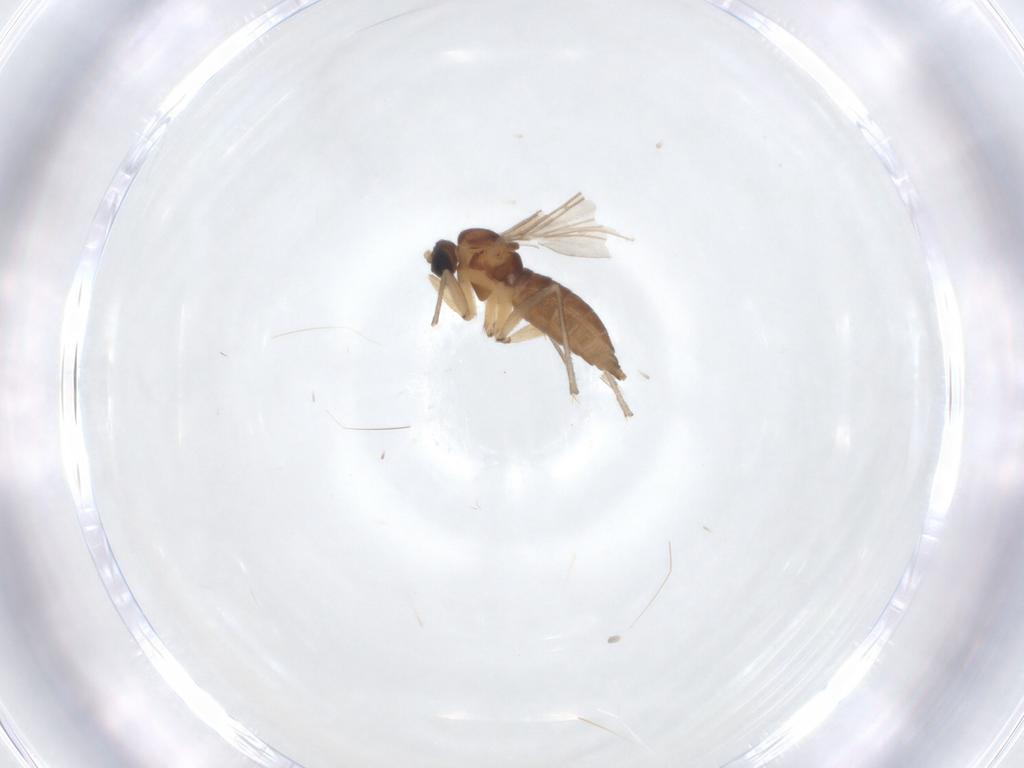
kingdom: Animalia
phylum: Arthropoda
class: Insecta
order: Diptera
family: Sciaridae
